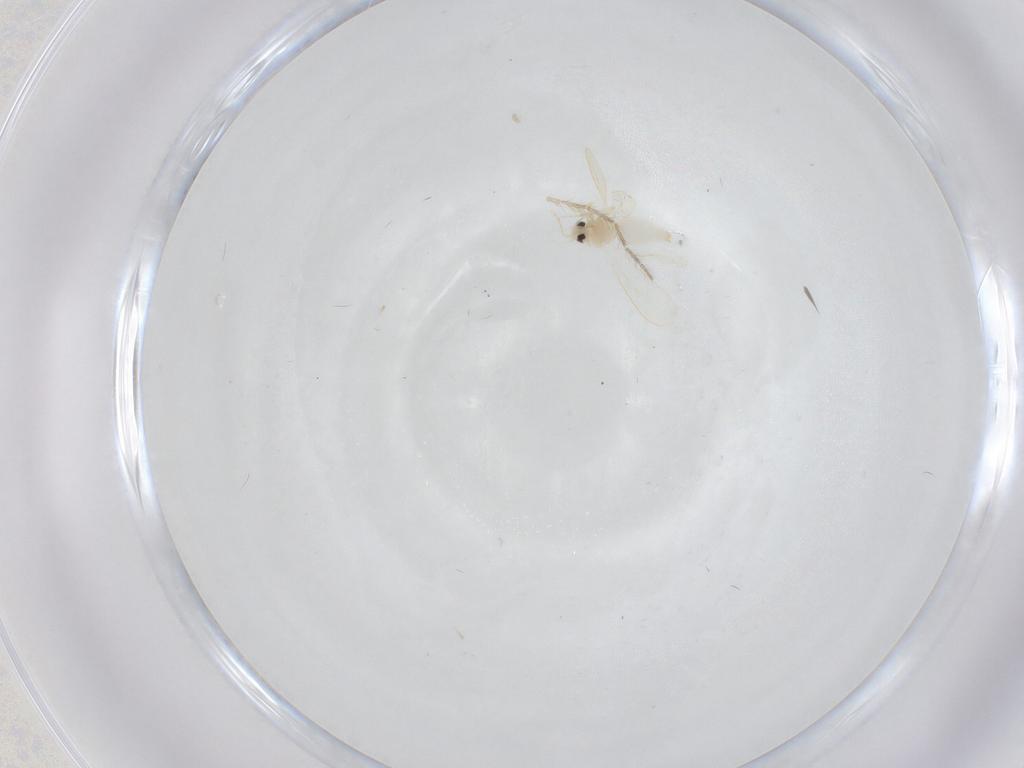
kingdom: Animalia
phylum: Arthropoda
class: Insecta
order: Hemiptera
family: Aleyrodidae
